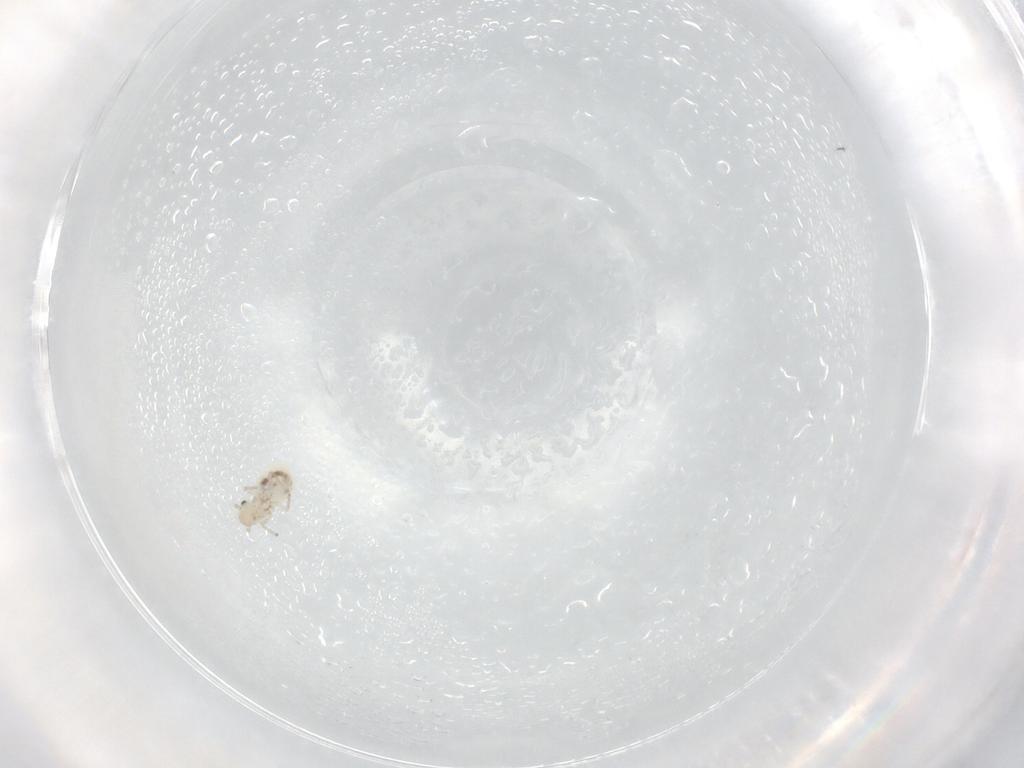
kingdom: Animalia
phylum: Arthropoda
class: Insecta
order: Psocodea
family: Caeciliusidae
